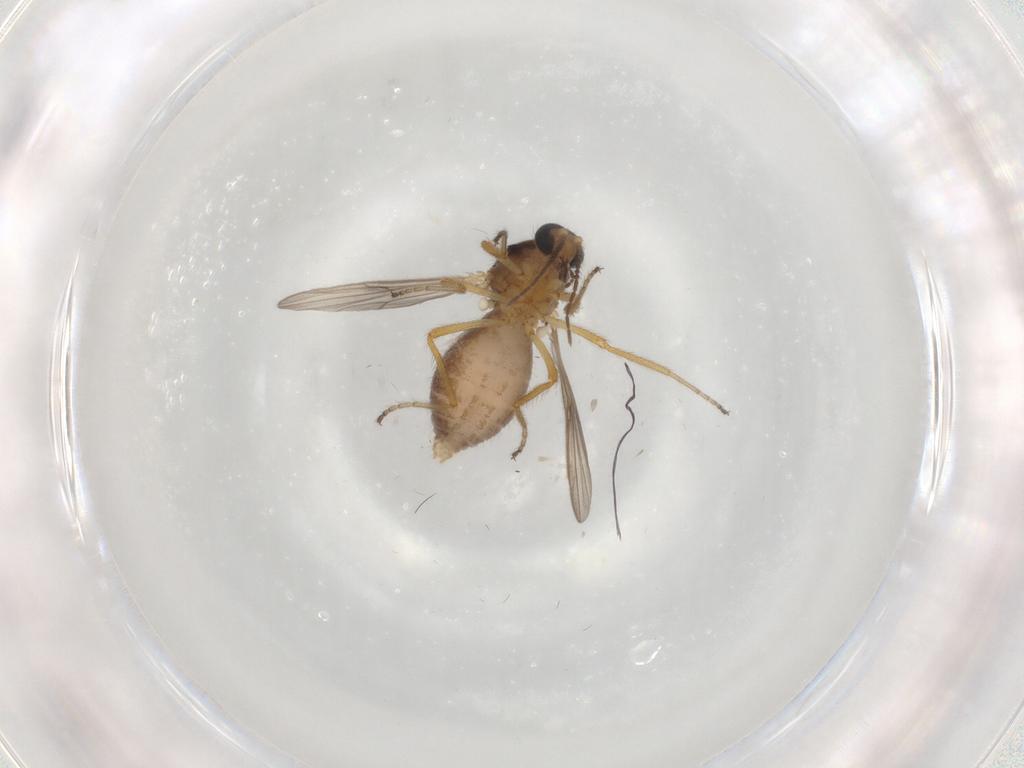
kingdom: Animalia
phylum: Arthropoda
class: Insecta
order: Diptera
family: Ceratopogonidae
